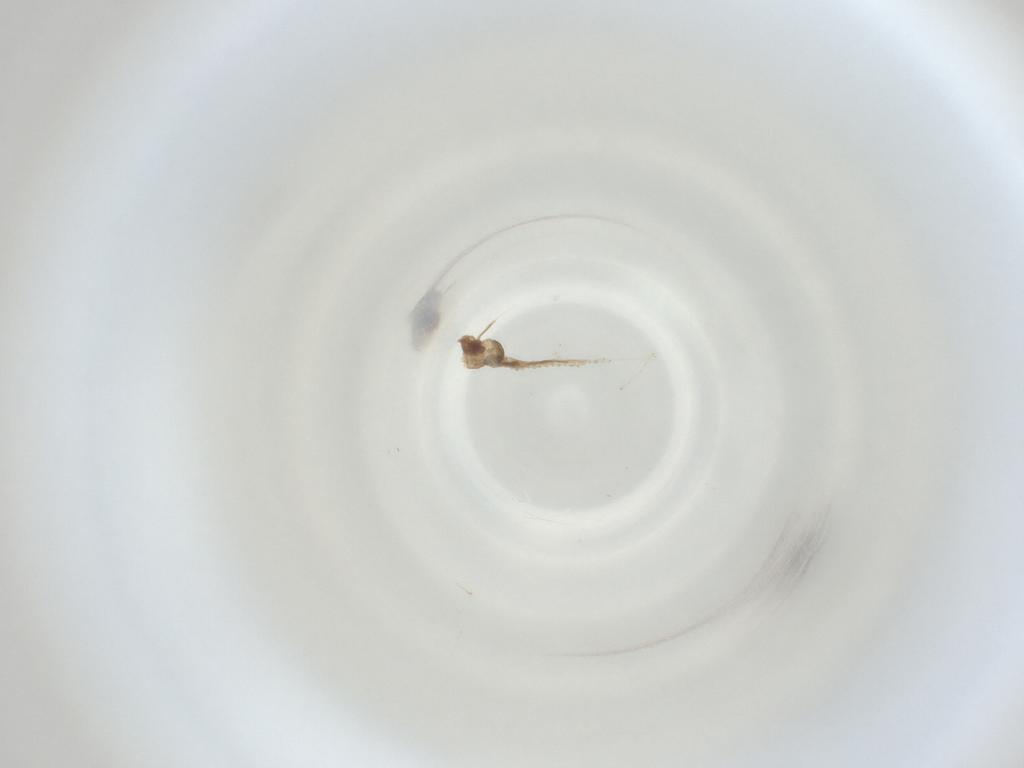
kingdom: Animalia
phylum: Arthropoda
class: Insecta
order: Diptera
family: Cecidomyiidae
